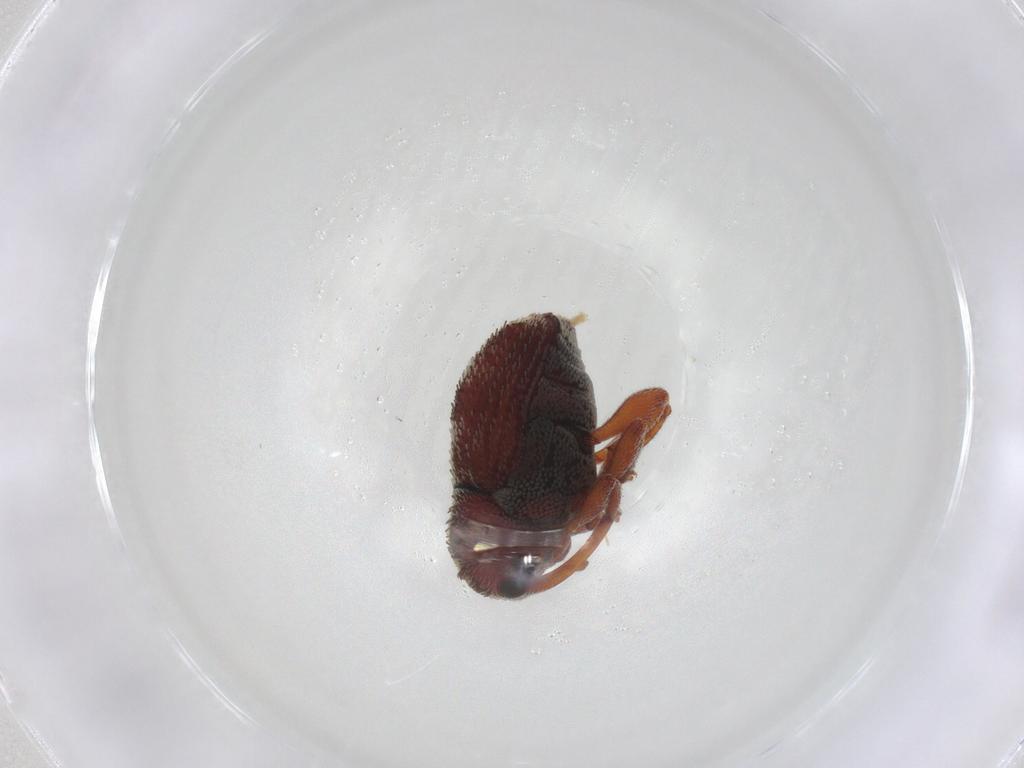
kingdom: Animalia
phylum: Arthropoda
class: Insecta
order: Coleoptera
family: Curculionidae
